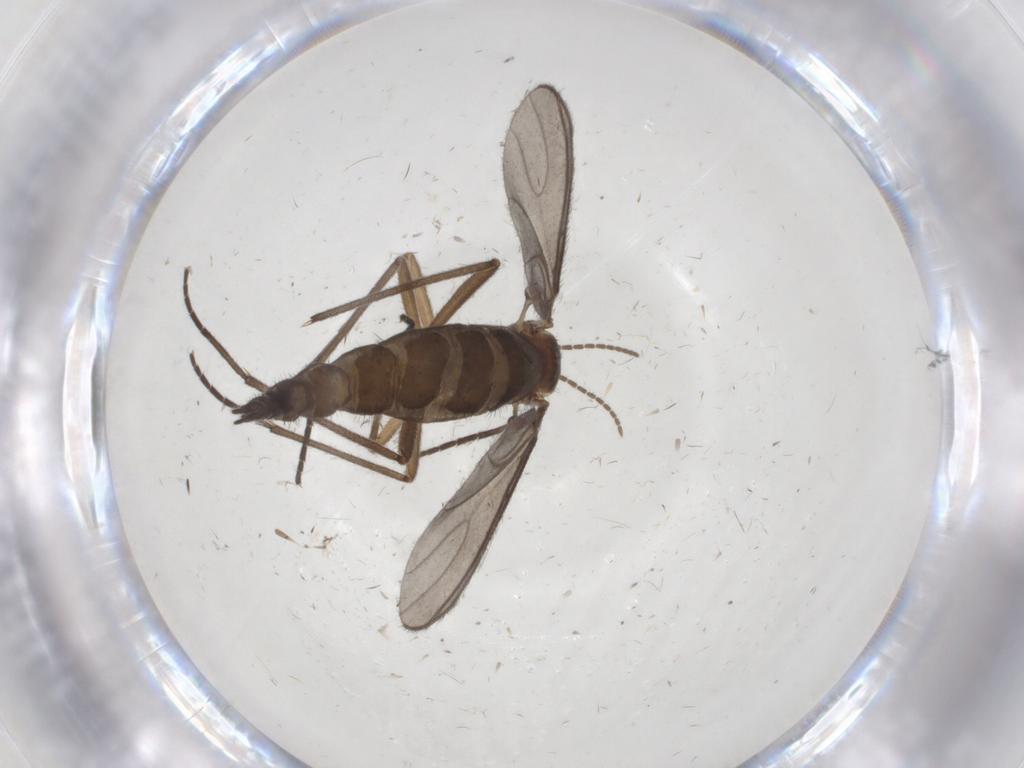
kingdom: Animalia
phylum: Arthropoda
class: Insecta
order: Diptera
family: Sciaridae
